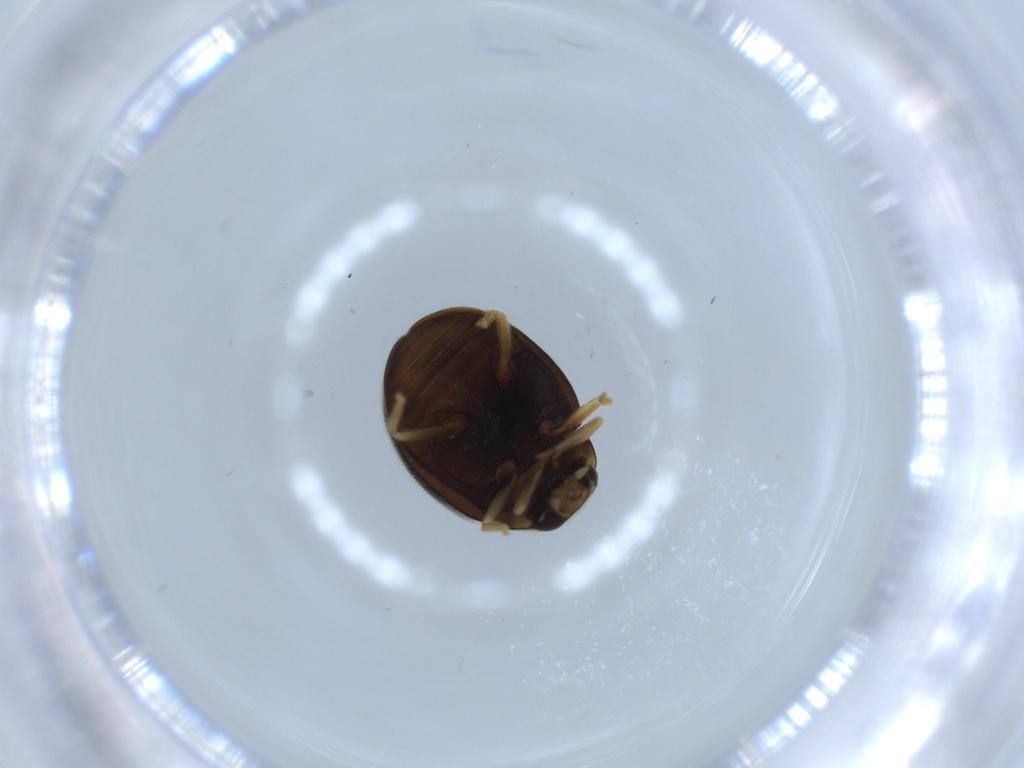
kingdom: Animalia
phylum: Arthropoda
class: Insecta
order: Coleoptera
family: Coccinellidae
